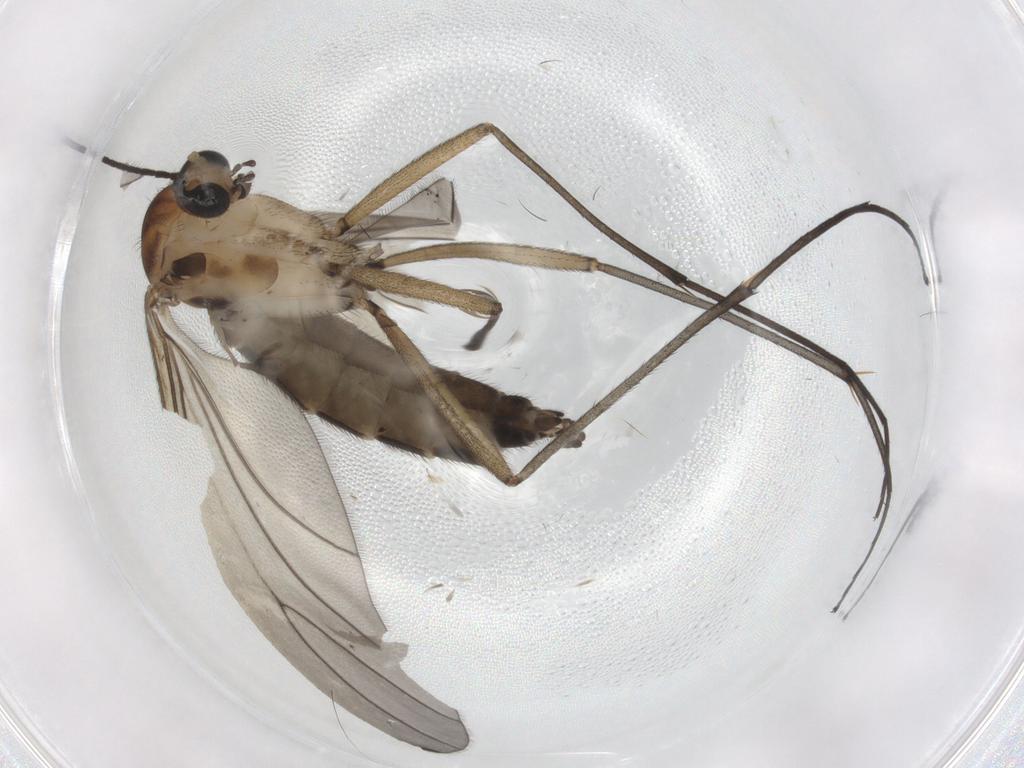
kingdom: Animalia
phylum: Arthropoda
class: Insecta
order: Diptera
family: Sciaridae
